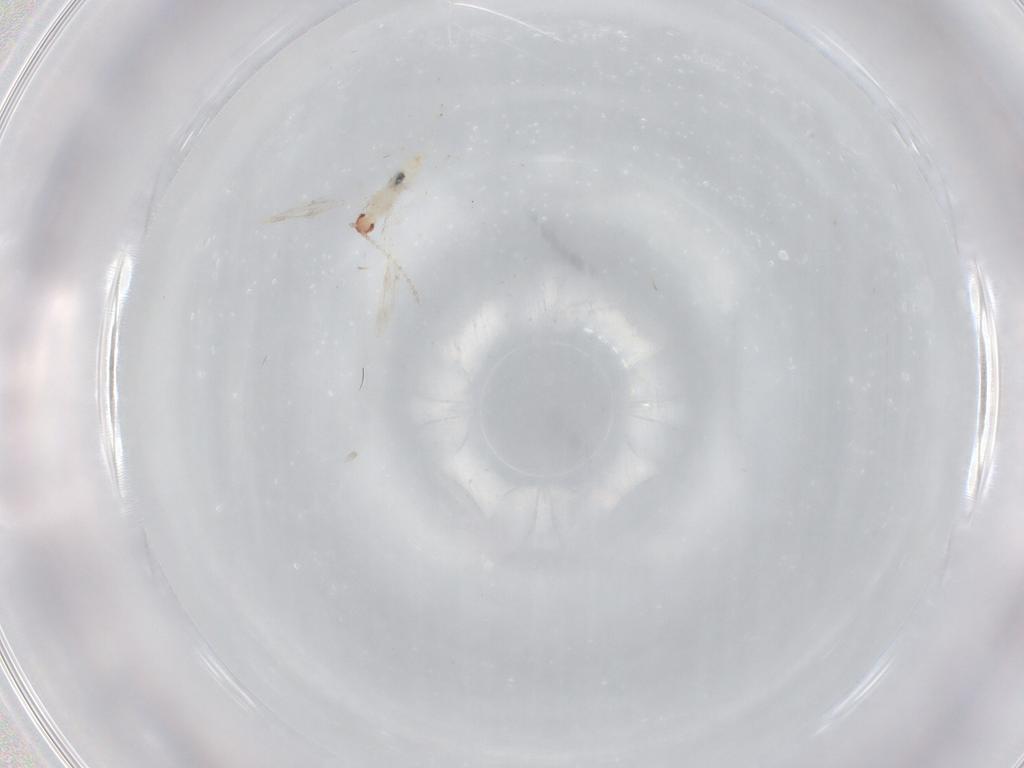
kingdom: Animalia
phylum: Arthropoda
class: Insecta
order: Diptera
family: Cecidomyiidae
